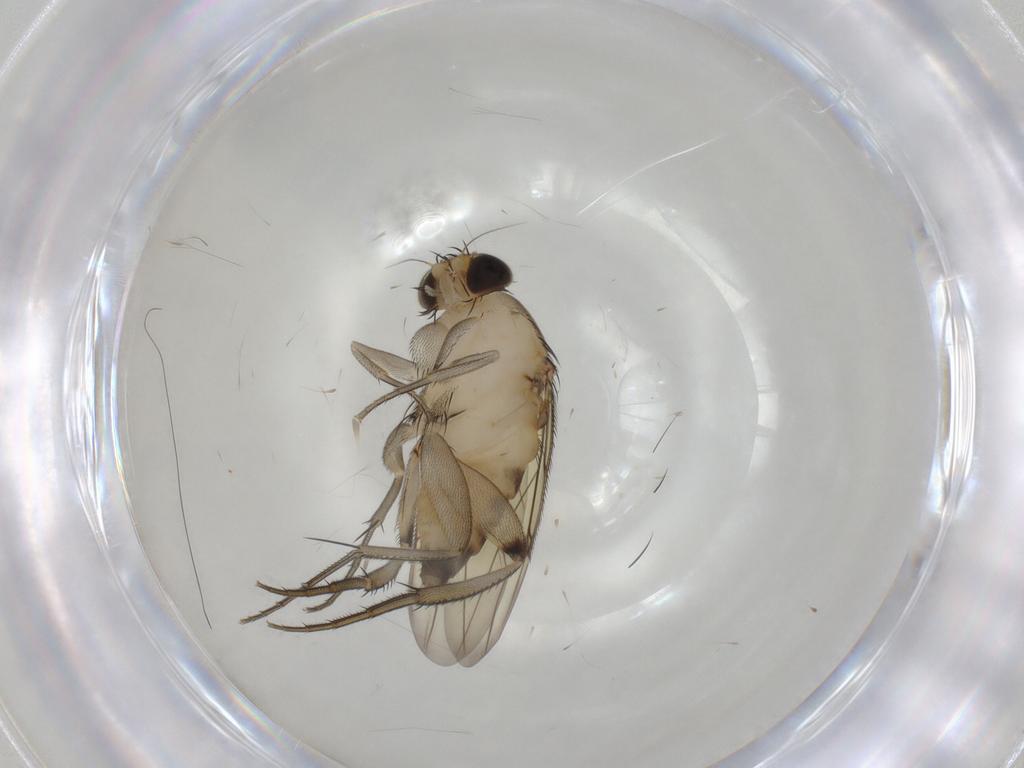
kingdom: Animalia
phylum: Arthropoda
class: Insecta
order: Diptera
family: Phoridae
